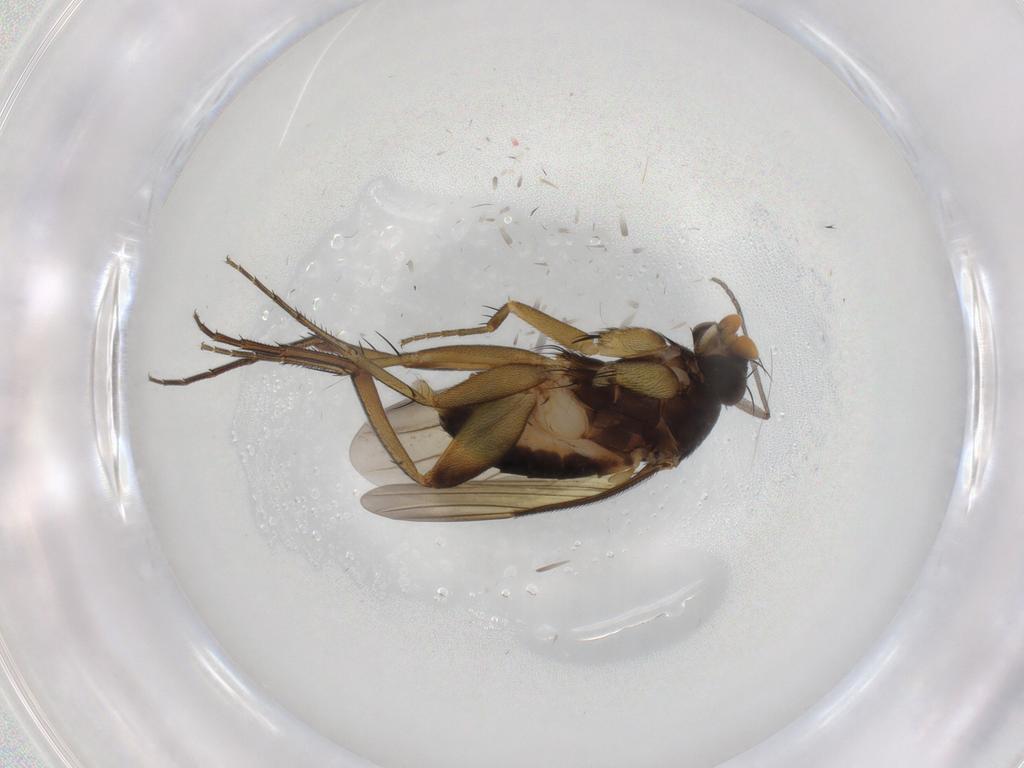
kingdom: Animalia
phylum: Arthropoda
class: Insecta
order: Diptera
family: Phoridae
